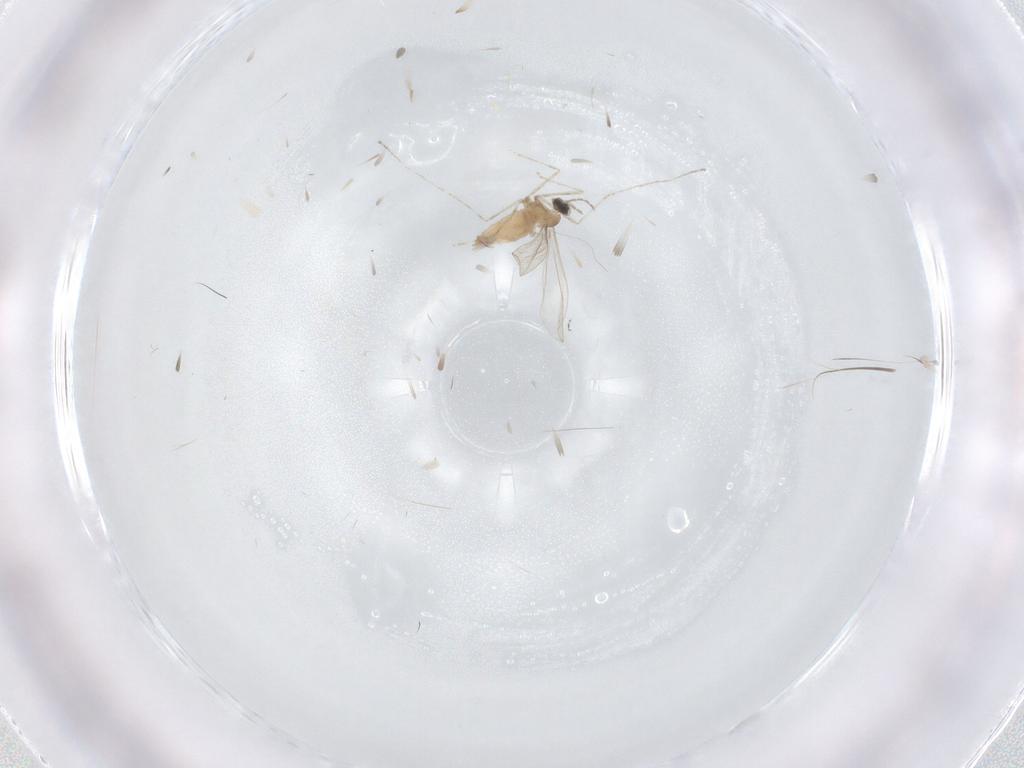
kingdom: Animalia
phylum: Arthropoda
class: Insecta
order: Diptera
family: Cecidomyiidae
